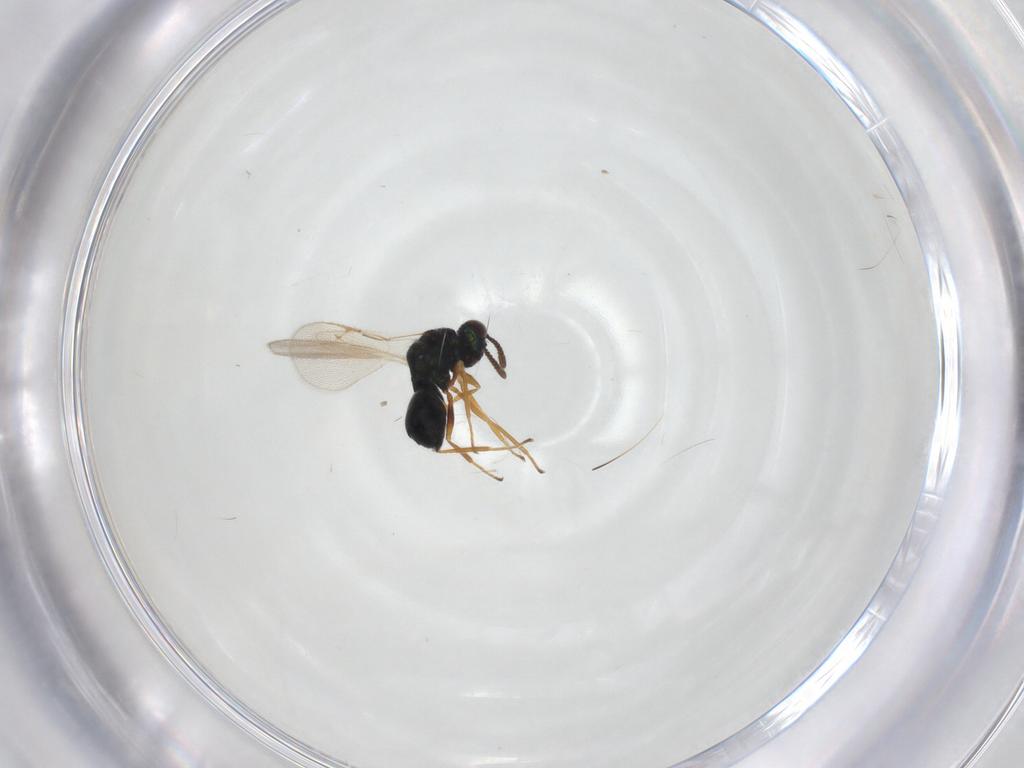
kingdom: Animalia
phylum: Arthropoda
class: Insecta
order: Hymenoptera
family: Chalcidoidea_incertae_sedis
